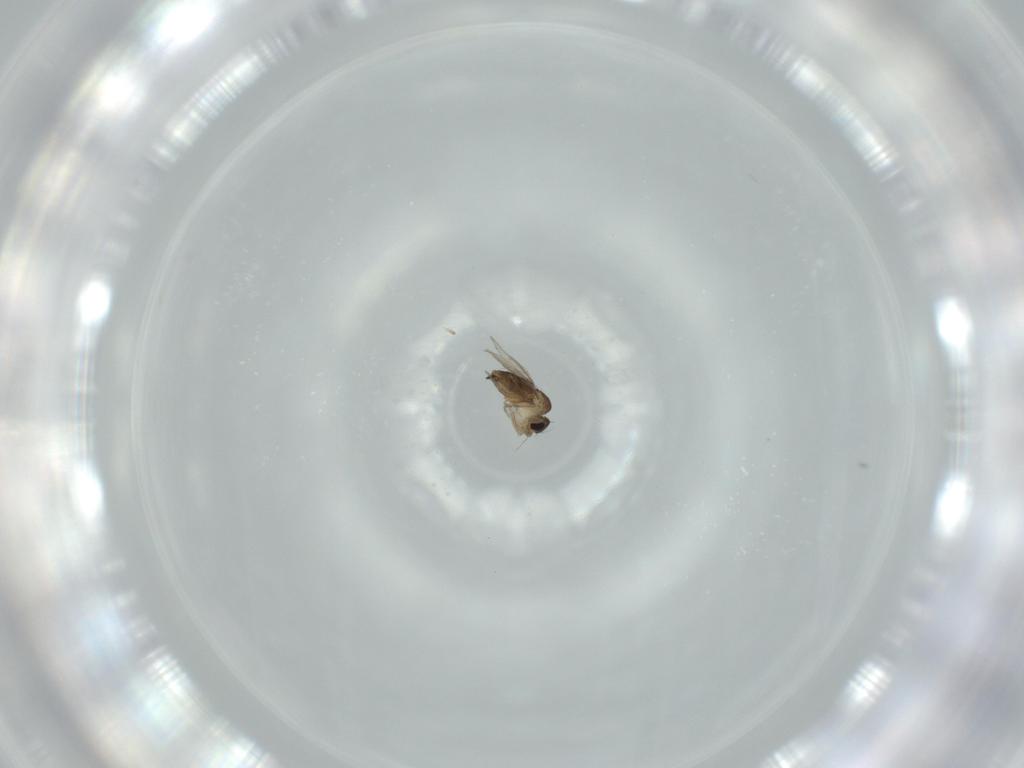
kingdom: Animalia
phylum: Arthropoda
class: Insecta
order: Diptera
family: Phoridae
